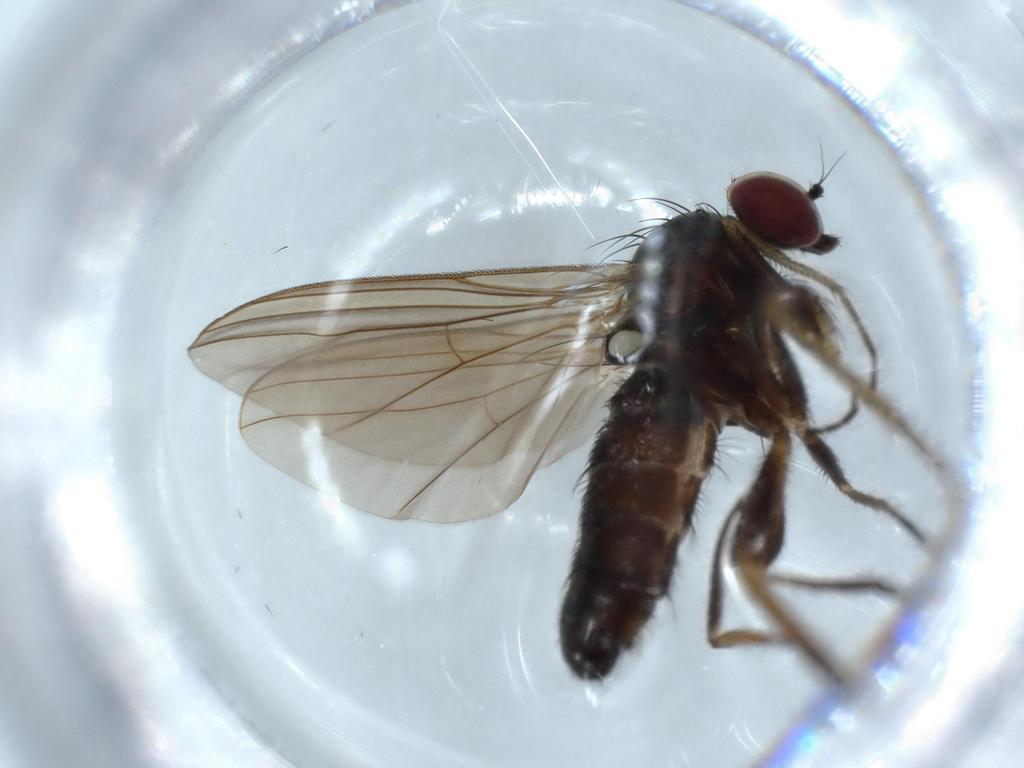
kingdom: Animalia
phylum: Arthropoda
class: Insecta
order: Diptera
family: Dolichopodidae
